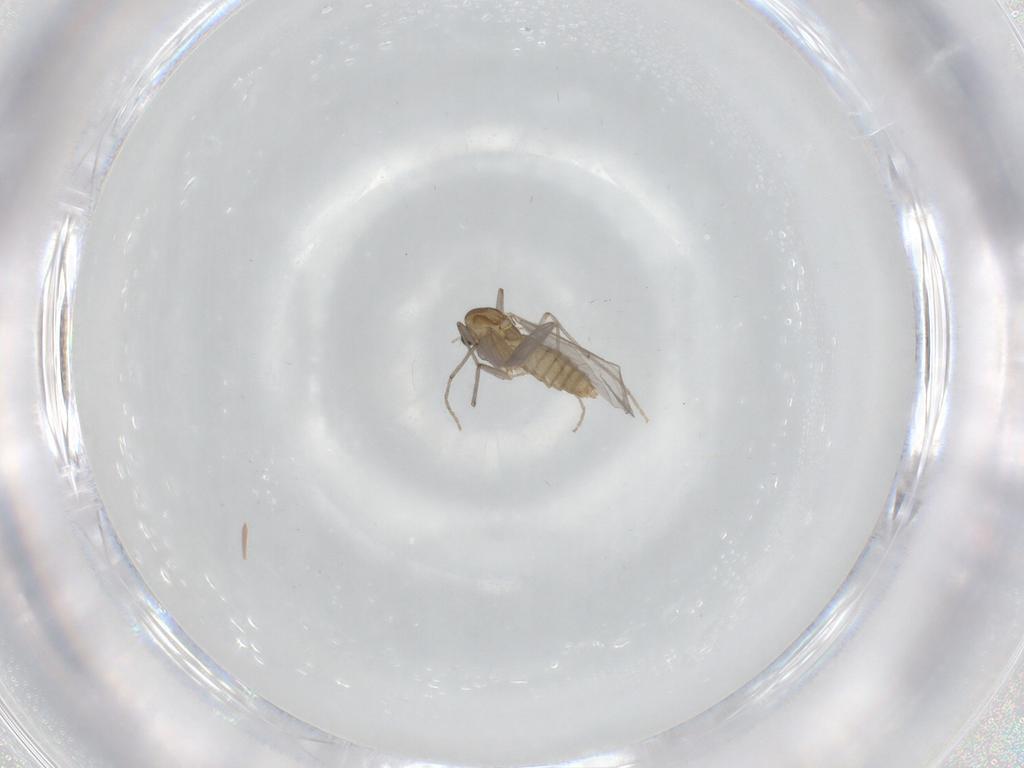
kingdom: Animalia
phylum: Arthropoda
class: Insecta
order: Diptera
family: Chironomidae
